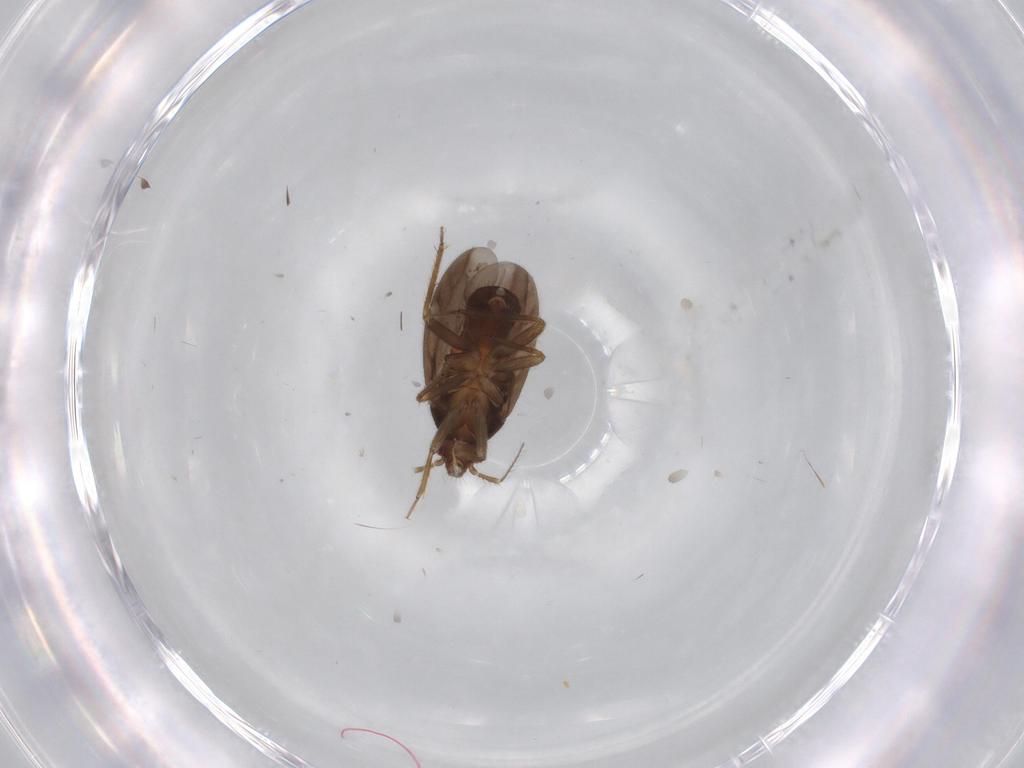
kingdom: Animalia
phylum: Arthropoda
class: Insecta
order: Hemiptera
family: Ceratocombidae
